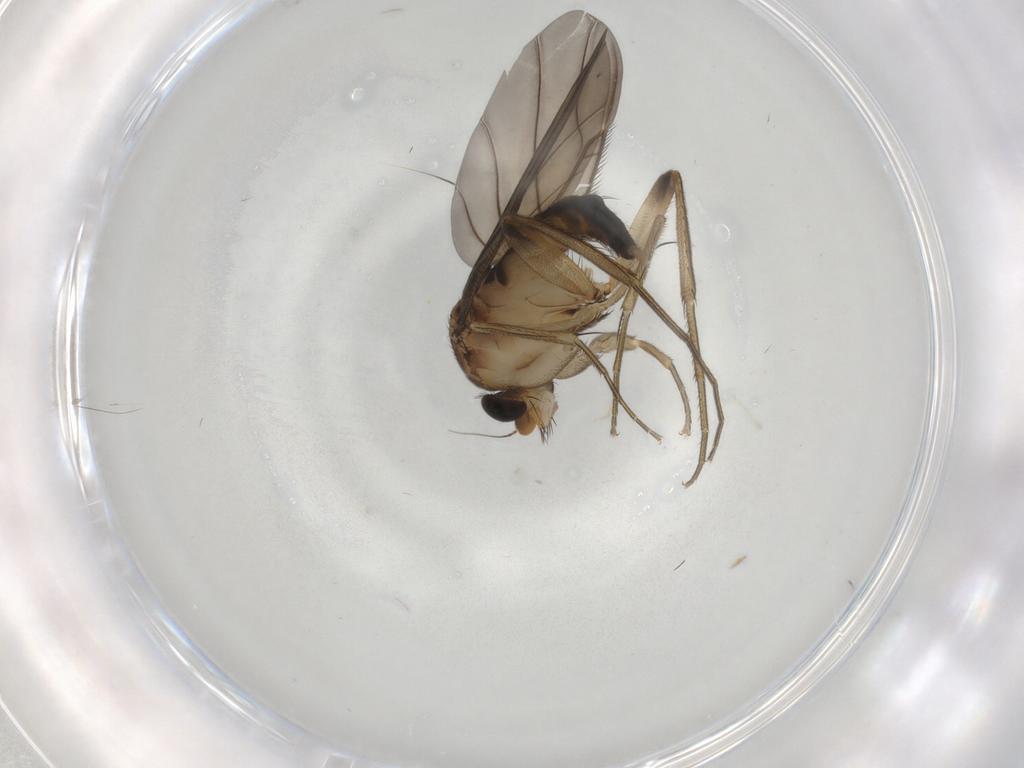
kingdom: Animalia
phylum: Arthropoda
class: Insecta
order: Diptera
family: Phoridae
